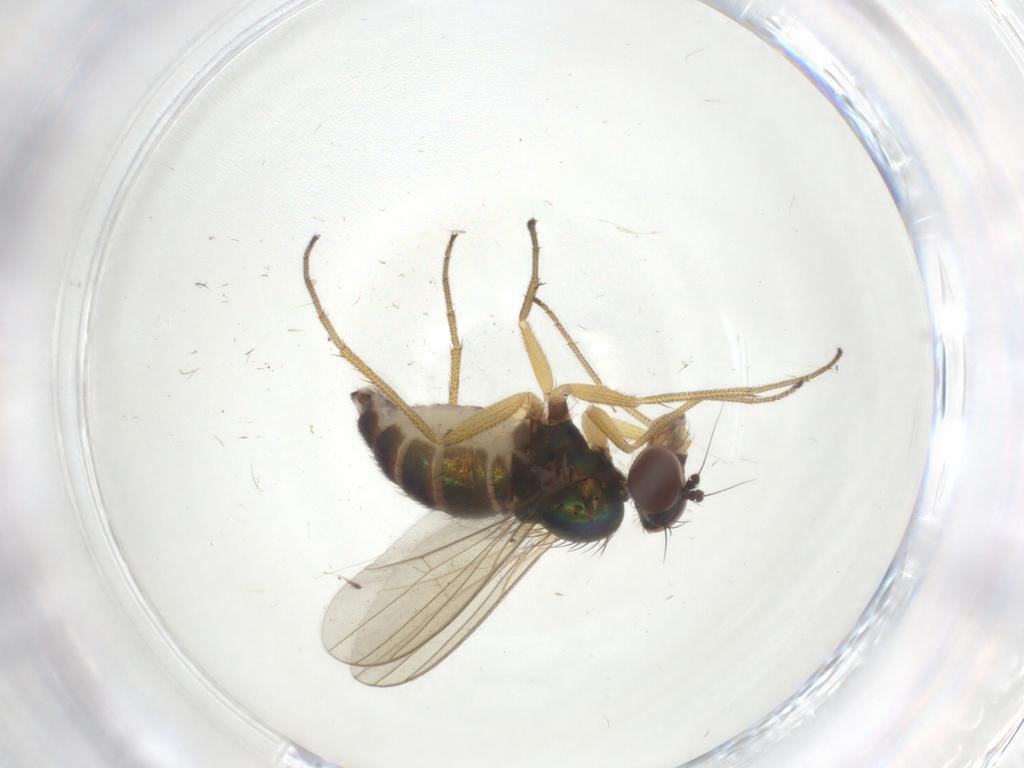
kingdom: Animalia
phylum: Arthropoda
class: Insecta
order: Diptera
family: Dolichopodidae
